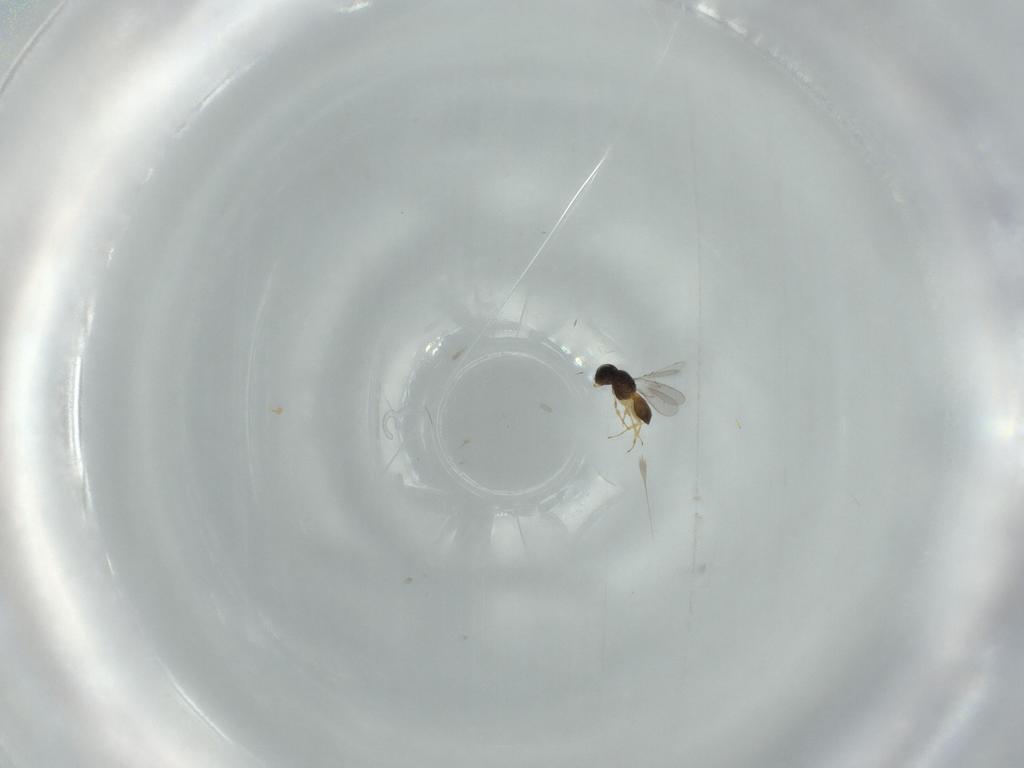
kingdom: Animalia
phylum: Arthropoda
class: Insecta
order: Hymenoptera
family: Scelionidae
